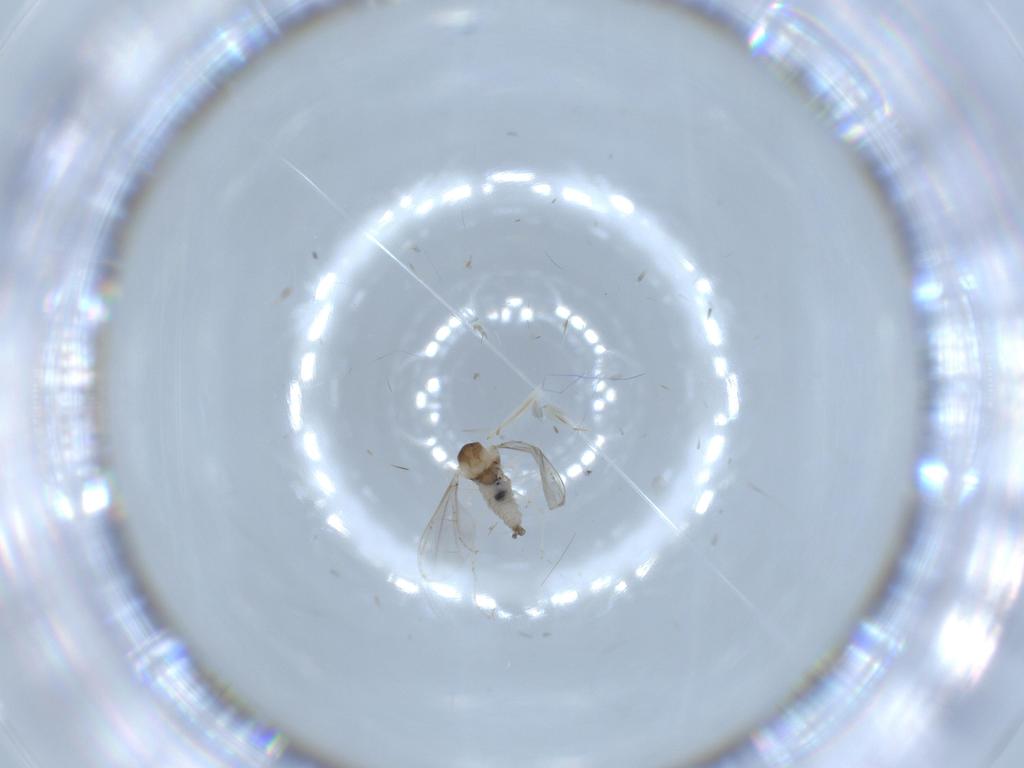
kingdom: Animalia
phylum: Arthropoda
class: Insecta
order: Diptera
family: Cecidomyiidae
